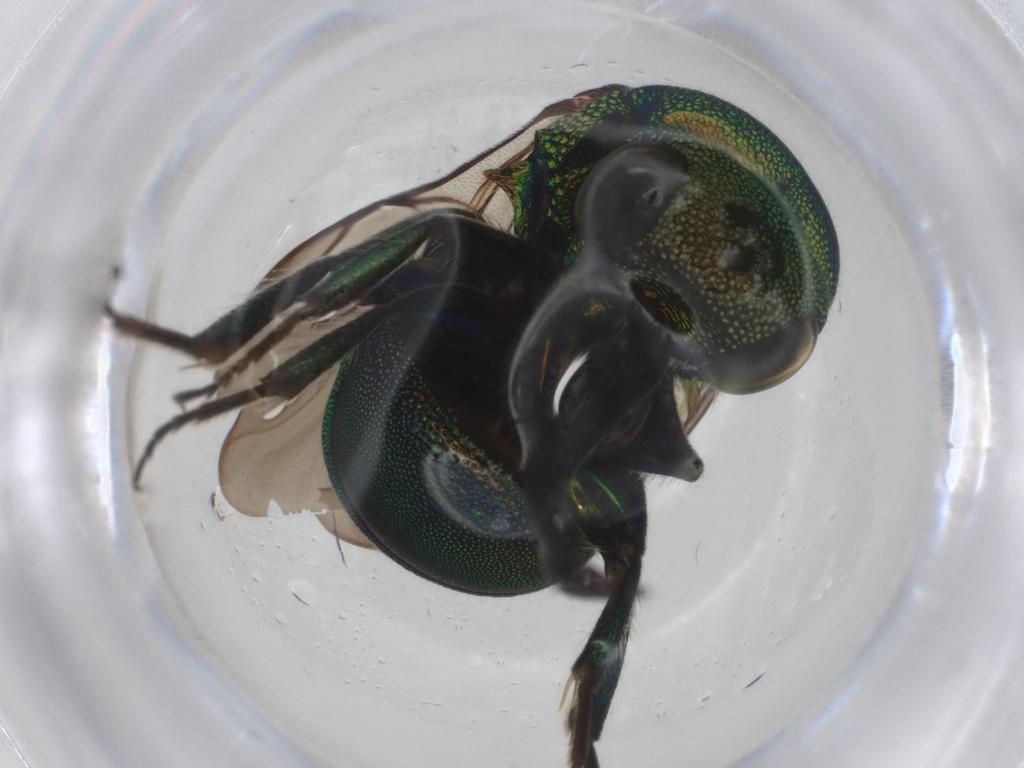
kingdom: Animalia
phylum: Arthropoda
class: Insecta
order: Hymenoptera
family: Chrysididae
